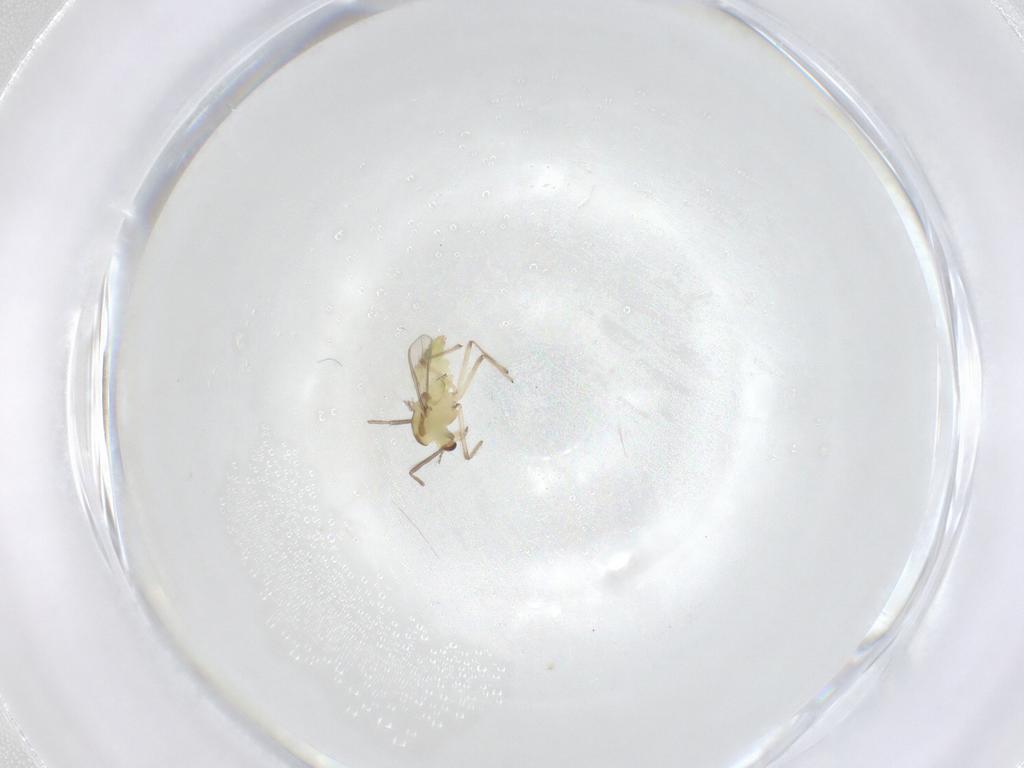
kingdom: Animalia
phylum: Arthropoda
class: Insecta
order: Diptera
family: Chironomidae
